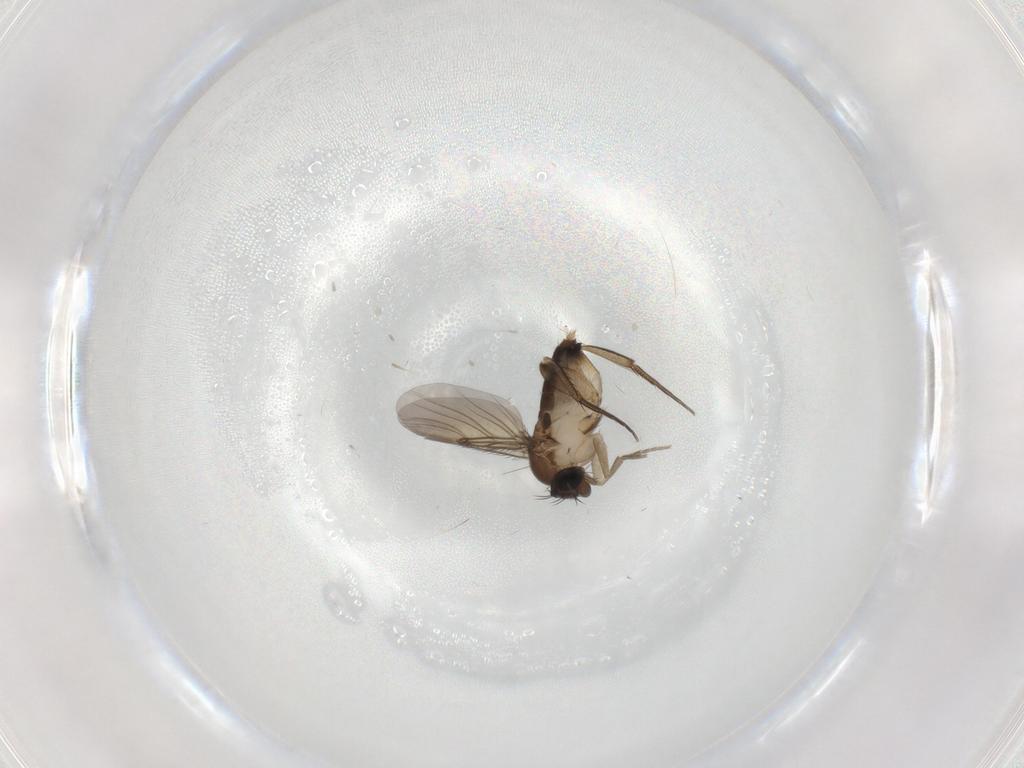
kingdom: Animalia
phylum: Arthropoda
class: Insecta
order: Diptera
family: Phoridae
